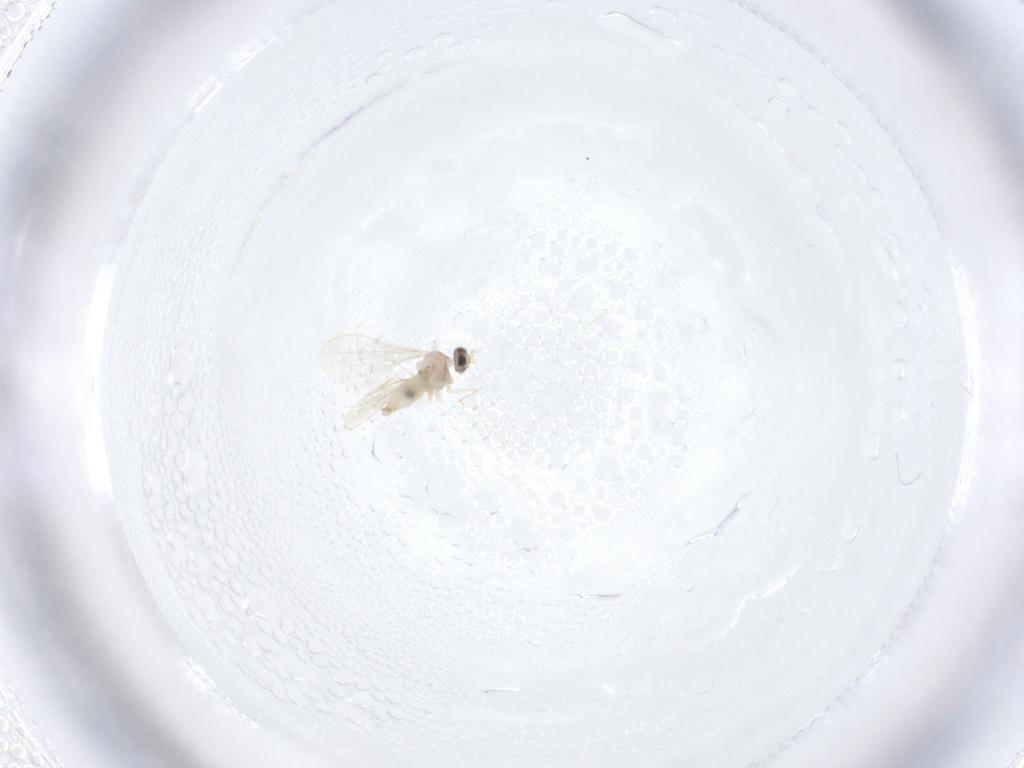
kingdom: Animalia
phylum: Arthropoda
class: Insecta
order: Diptera
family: Cecidomyiidae
